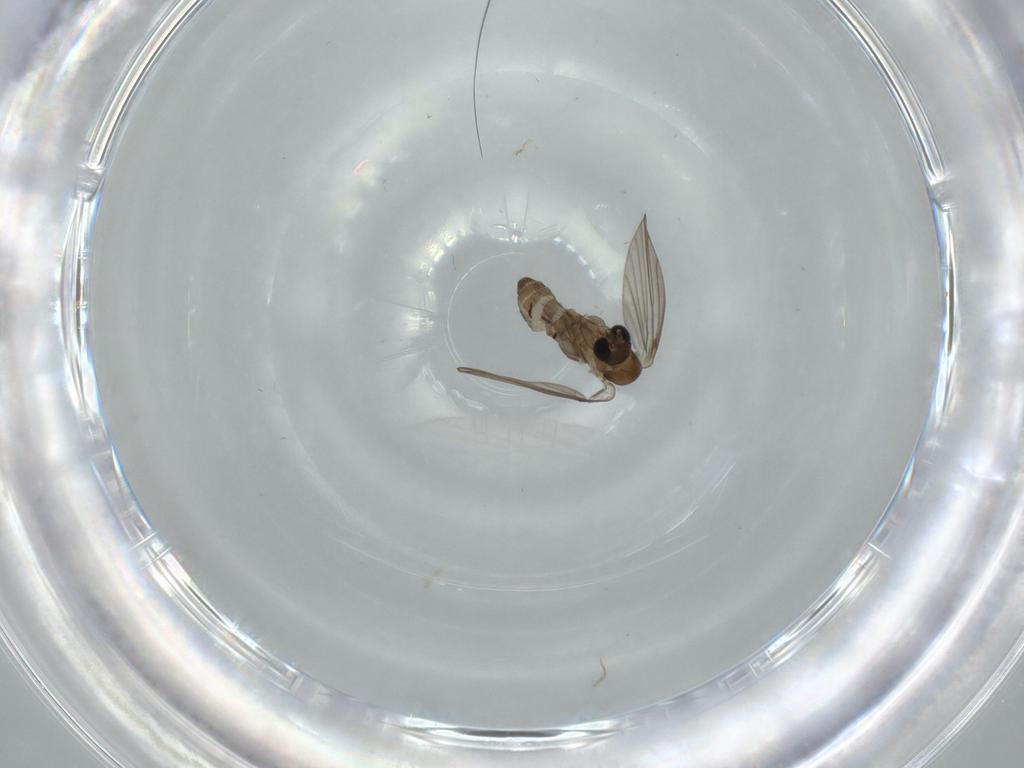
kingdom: Animalia
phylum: Arthropoda
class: Insecta
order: Diptera
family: Psychodidae
